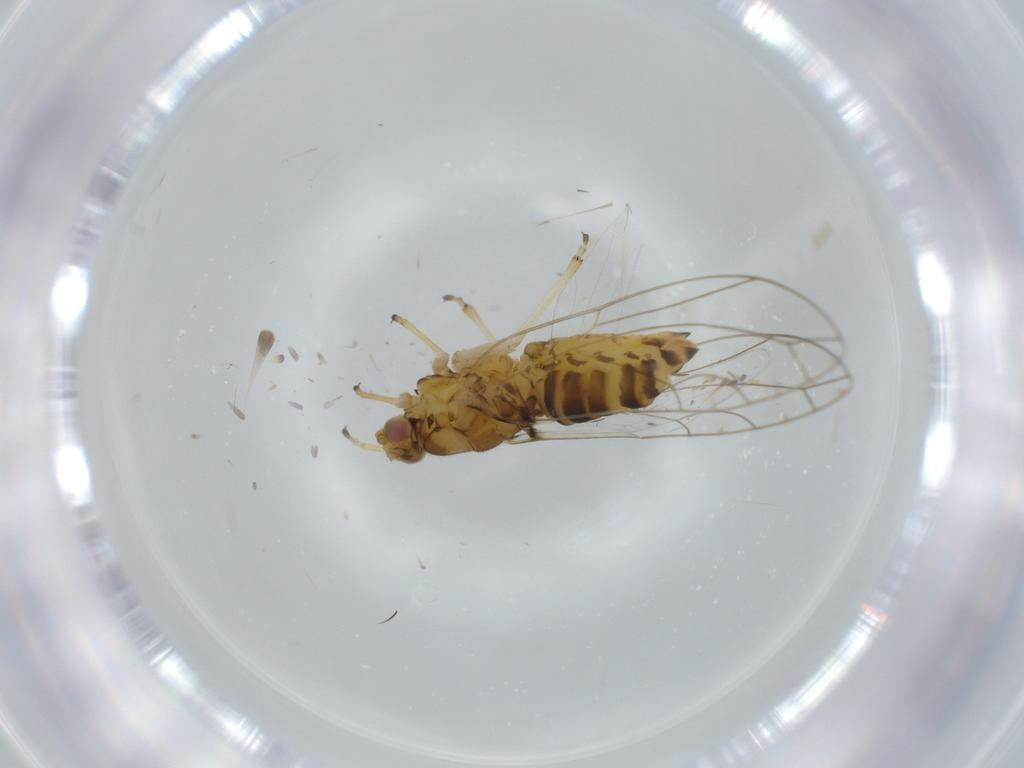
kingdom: Animalia
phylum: Arthropoda
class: Insecta
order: Hemiptera
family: Triozidae
